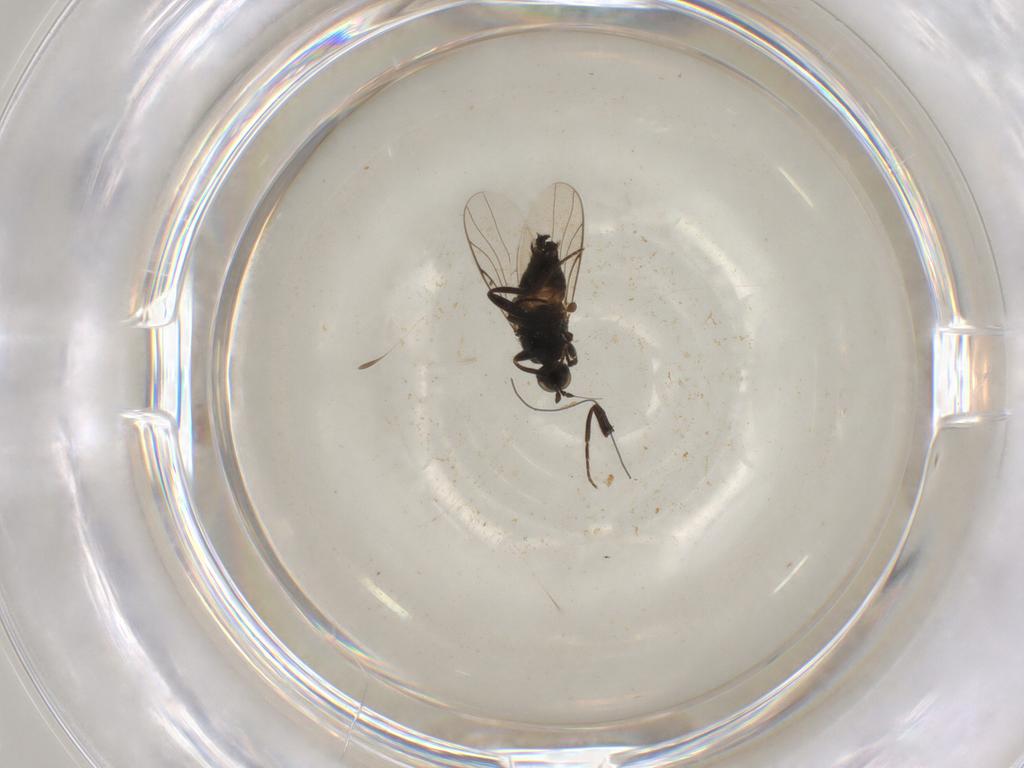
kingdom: Animalia
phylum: Arthropoda
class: Insecta
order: Diptera
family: Hybotidae
